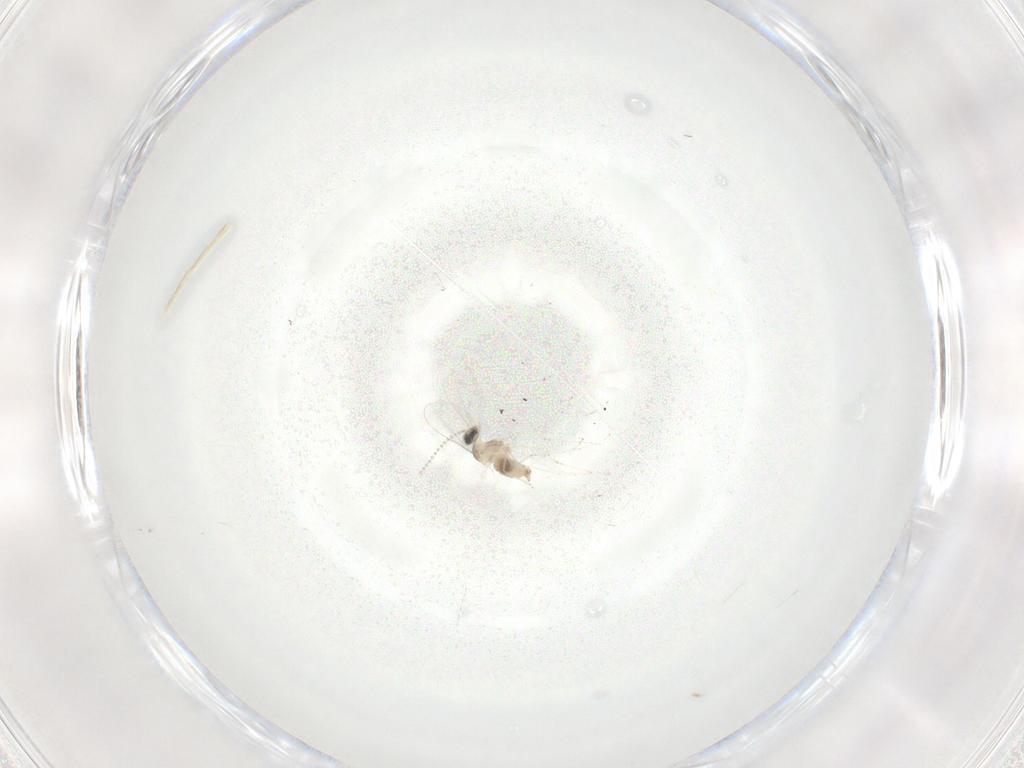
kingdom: Animalia
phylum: Arthropoda
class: Insecta
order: Diptera
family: Cecidomyiidae
